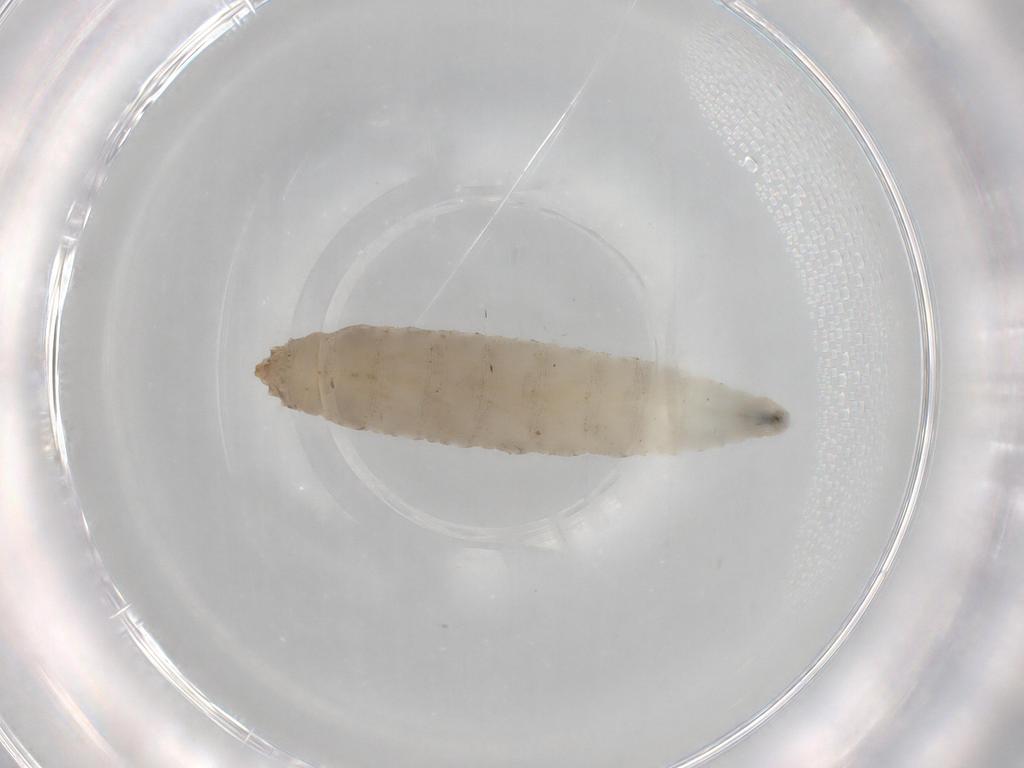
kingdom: Animalia
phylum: Arthropoda
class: Insecta
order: Diptera
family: Drosophilidae
